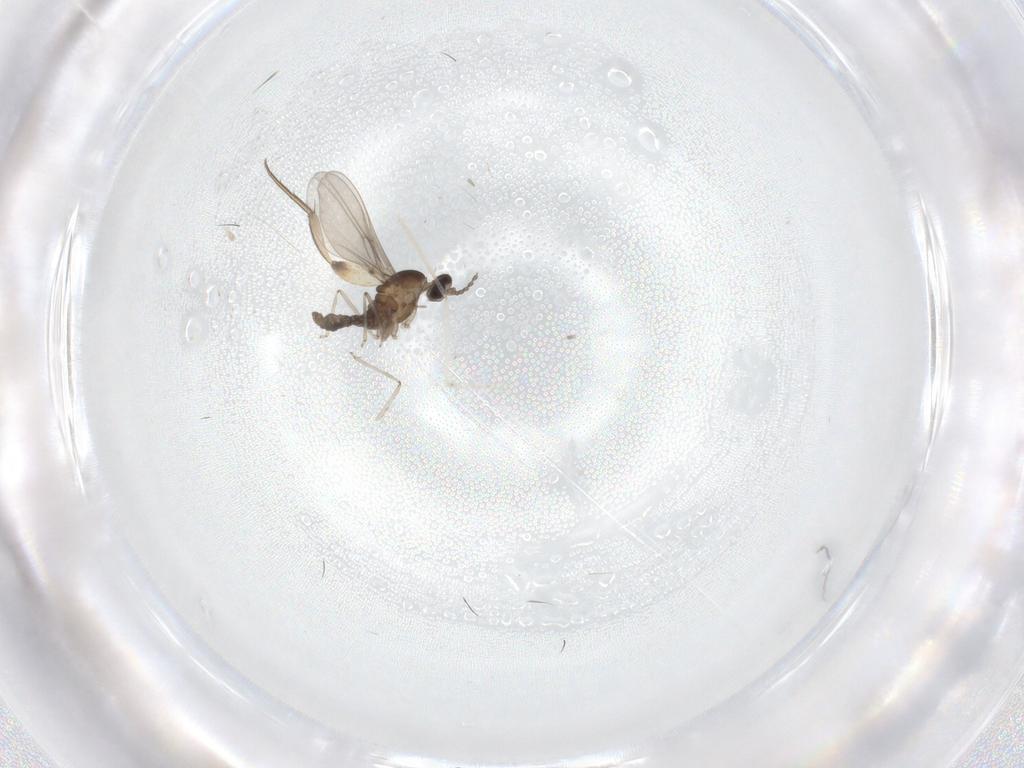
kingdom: Animalia
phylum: Arthropoda
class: Insecta
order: Diptera
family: Phoridae
